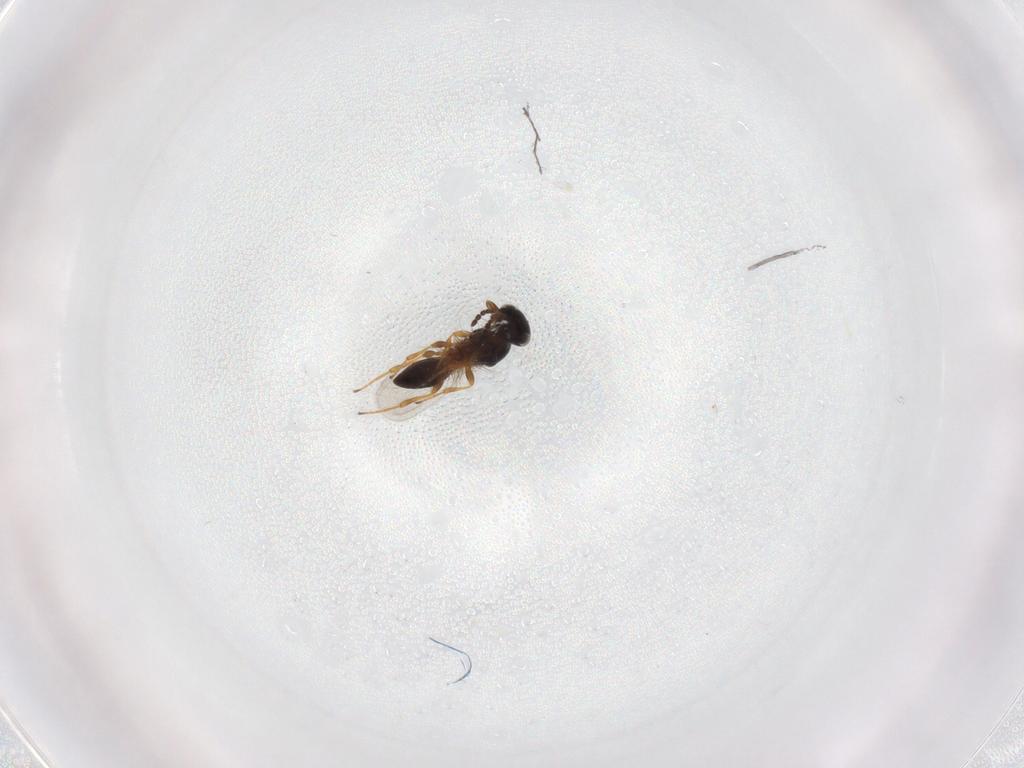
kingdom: Animalia
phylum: Arthropoda
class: Insecta
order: Hymenoptera
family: Platygastridae
